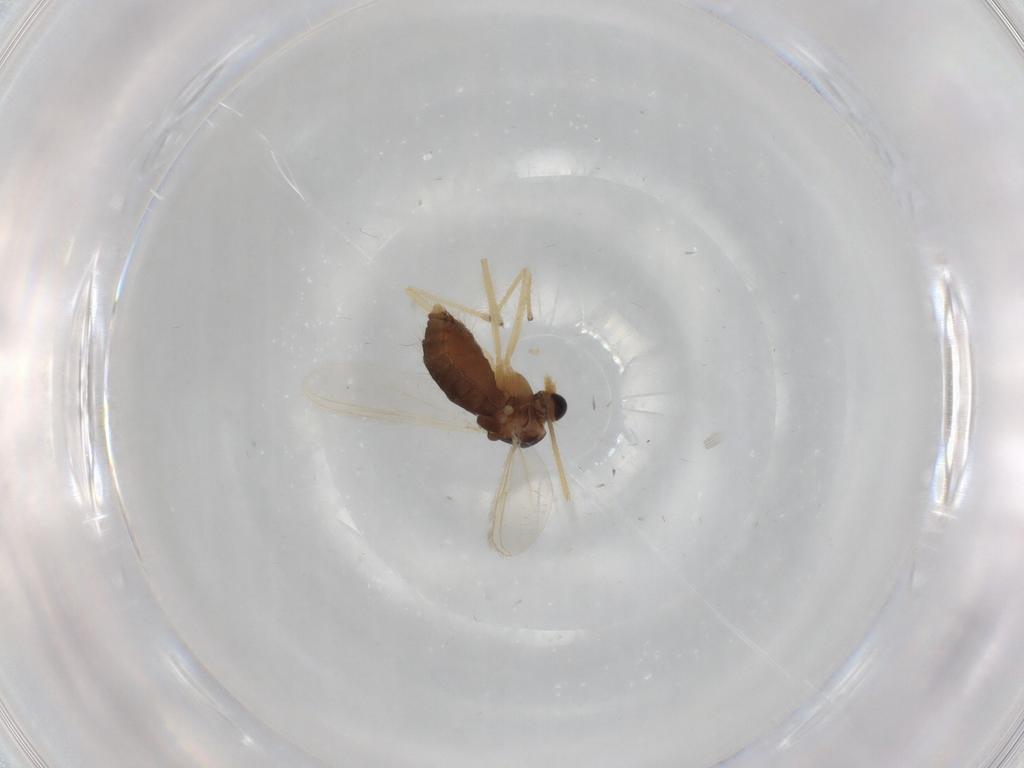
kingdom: Animalia
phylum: Arthropoda
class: Insecta
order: Diptera
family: Chironomidae
